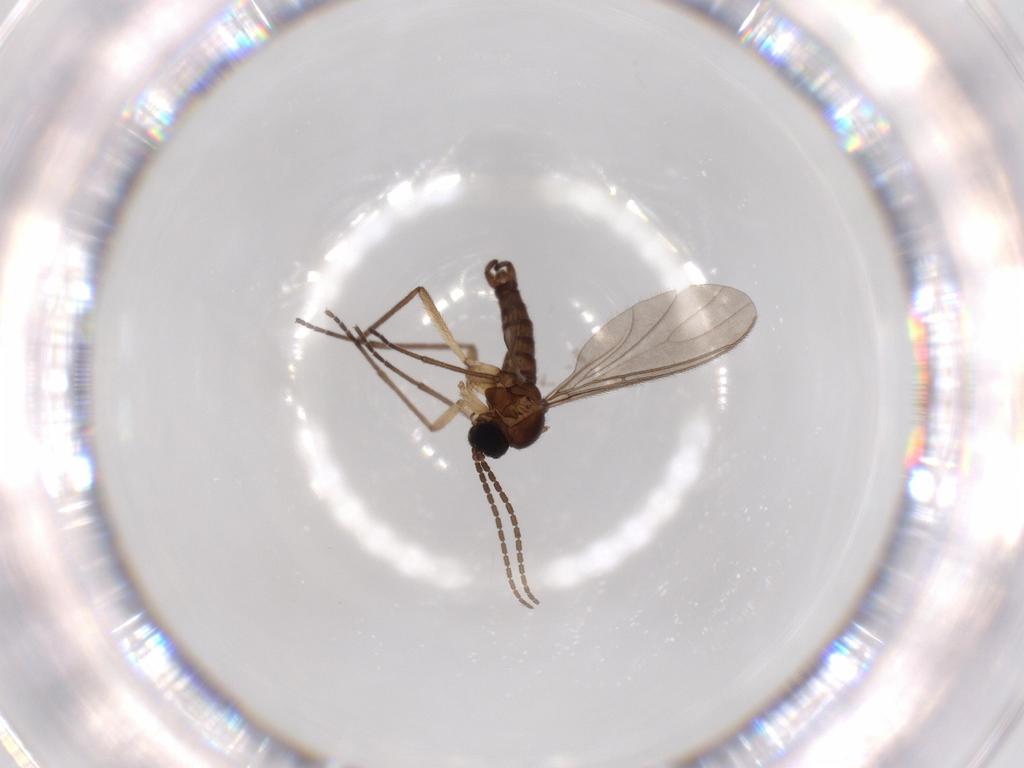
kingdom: Animalia
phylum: Arthropoda
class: Insecta
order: Diptera
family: Sciaridae
